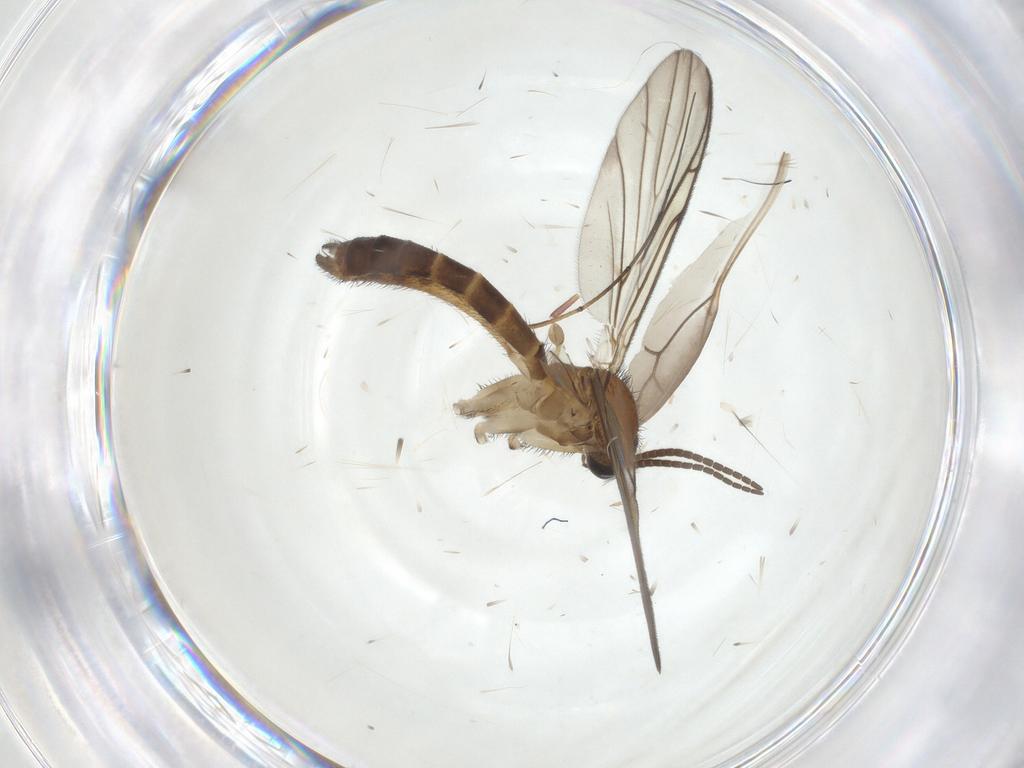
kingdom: Animalia
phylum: Arthropoda
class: Insecta
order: Diptera
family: Keroplatidae
